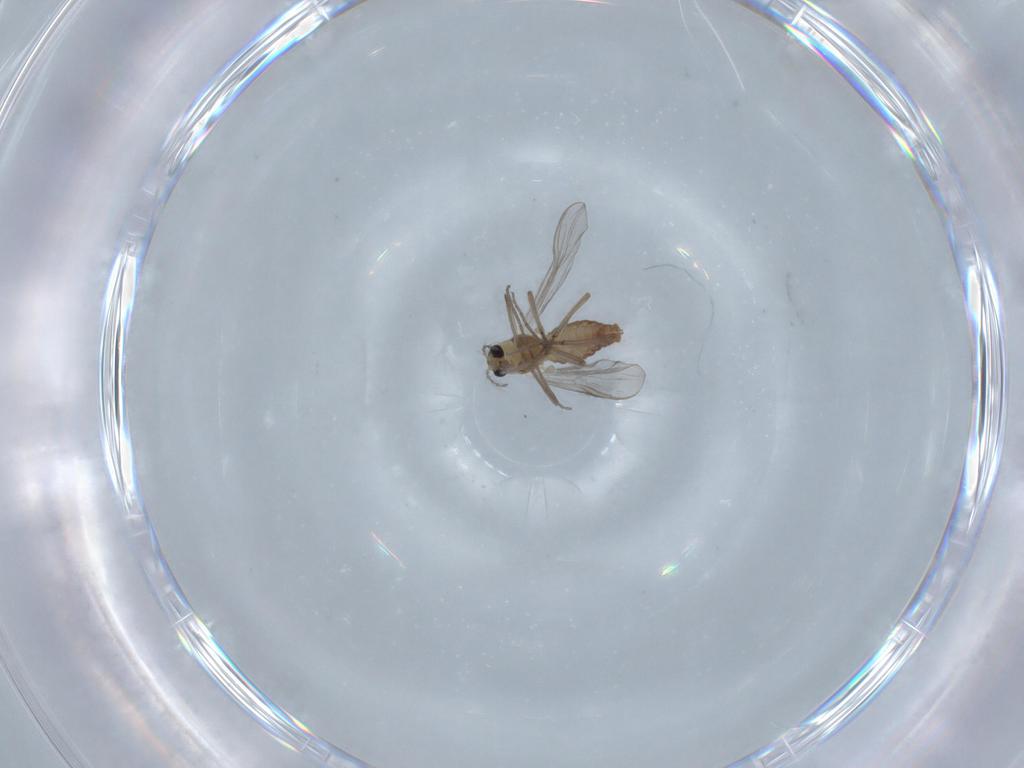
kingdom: Animalia
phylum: Arthropoda
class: Insecta
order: Diptera
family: Chironomidae
